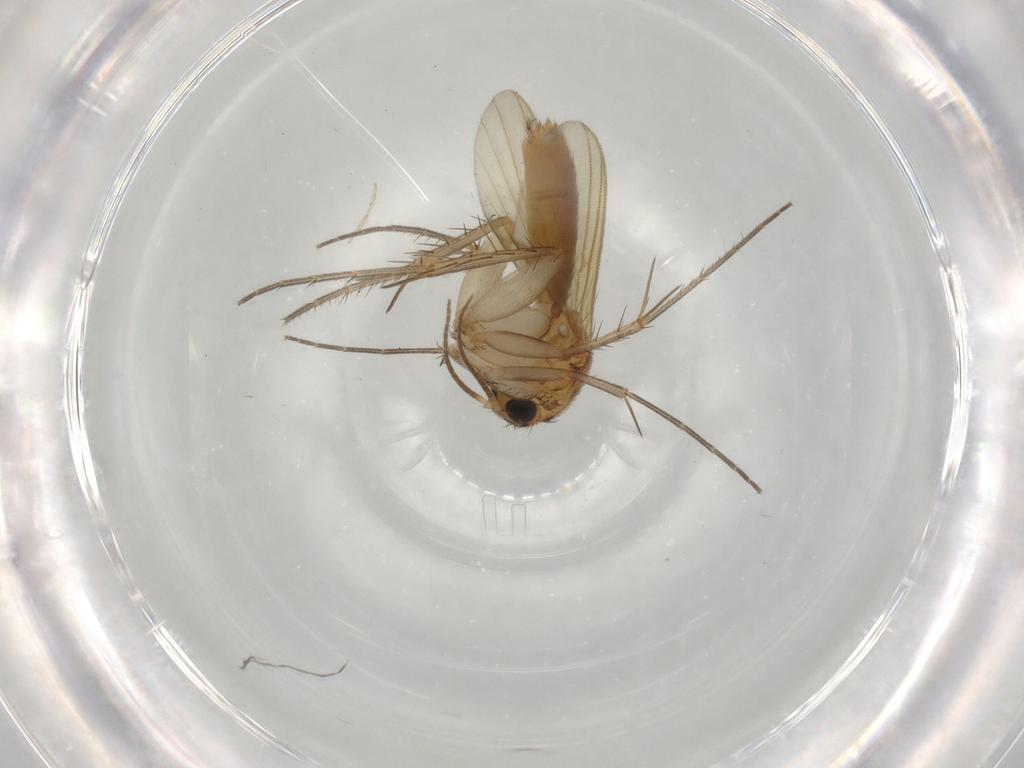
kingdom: Animalia
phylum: Arthropoda
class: Insecta
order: Diptera
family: Mycetophilidae
